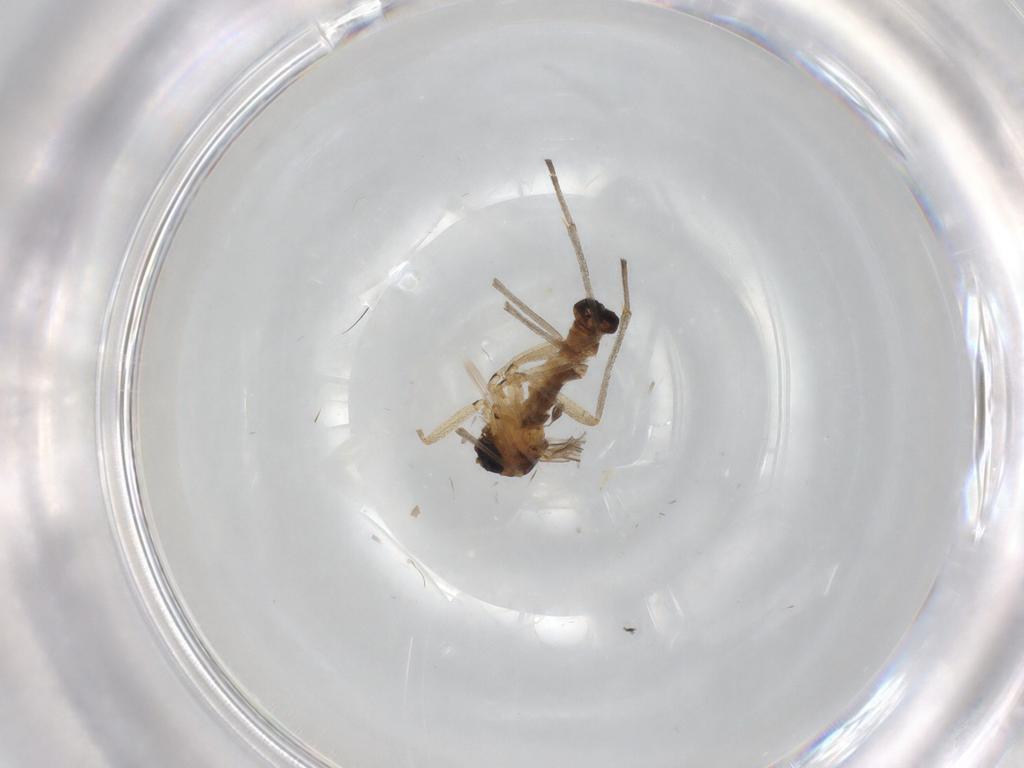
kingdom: Animalia
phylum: Arthropoda
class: Insecta
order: Diptera
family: Sciaridae
